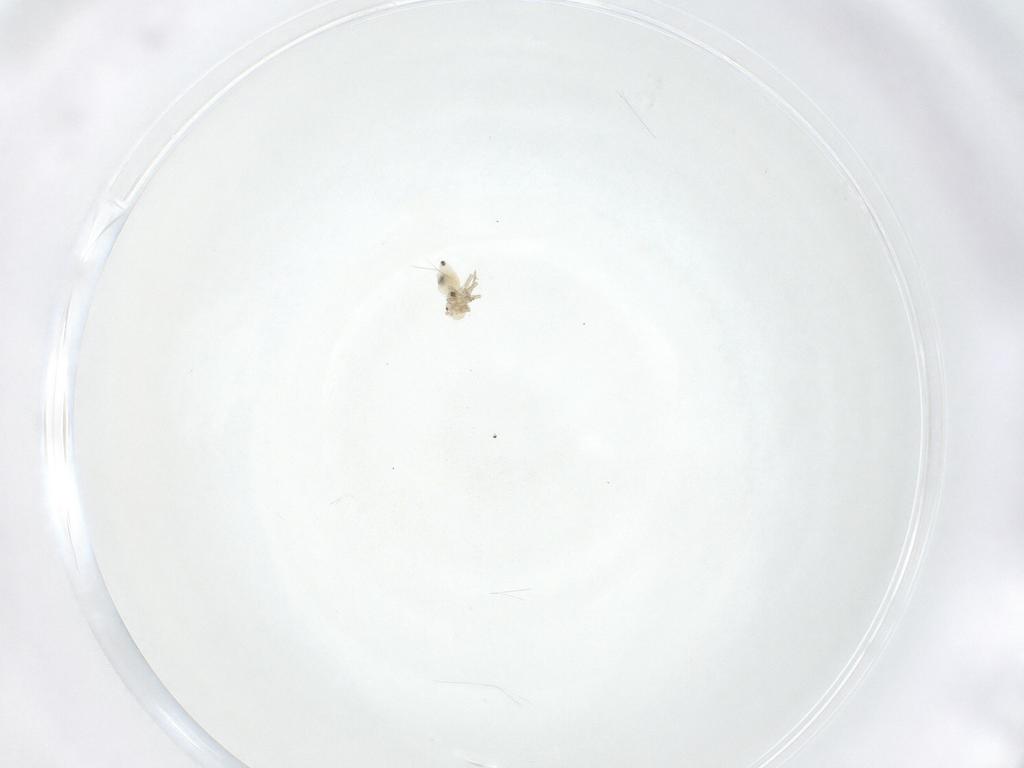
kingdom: Animalia
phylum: Arthropoda
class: Insecta
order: Psocodea
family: Caeciliusidae
